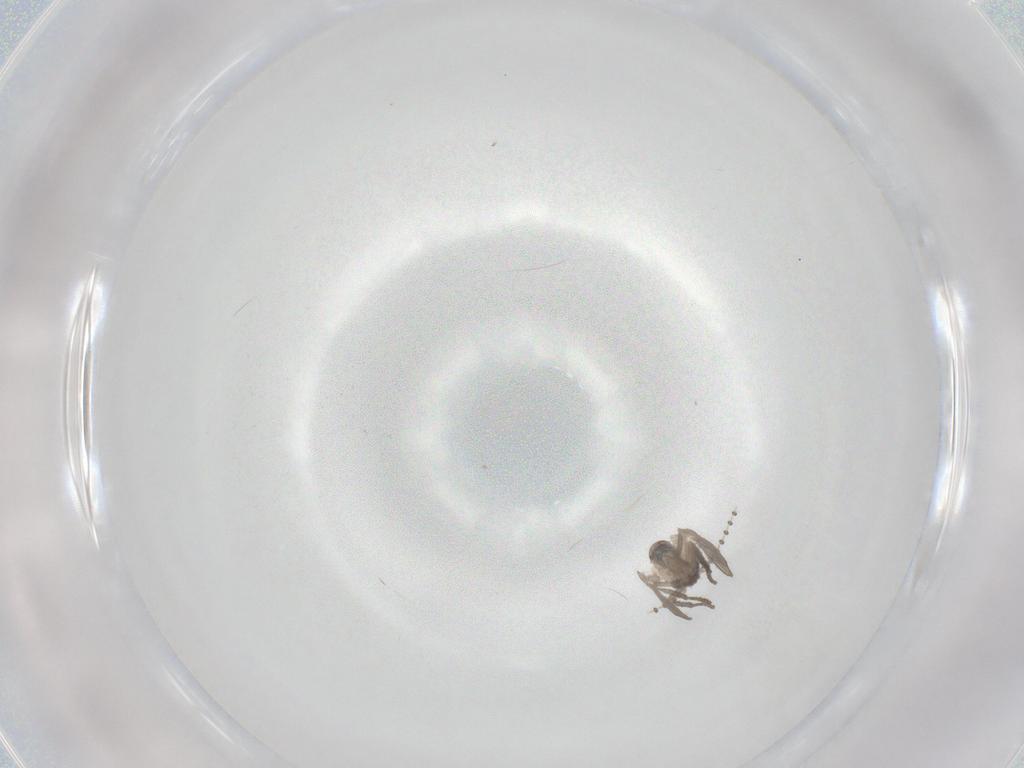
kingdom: Animalia
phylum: Arthropoda
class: Insecta
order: Diptera
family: Psychodidae
